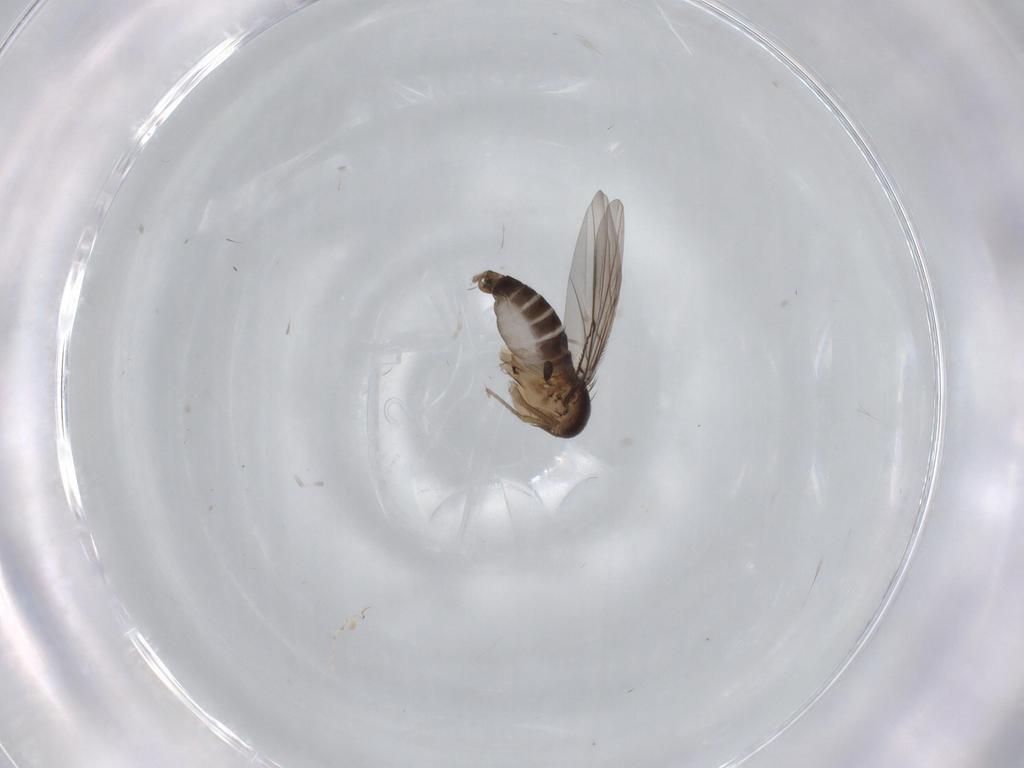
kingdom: Animalia
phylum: Arthropoda
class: Insecta
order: Diptera
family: Phoridae
